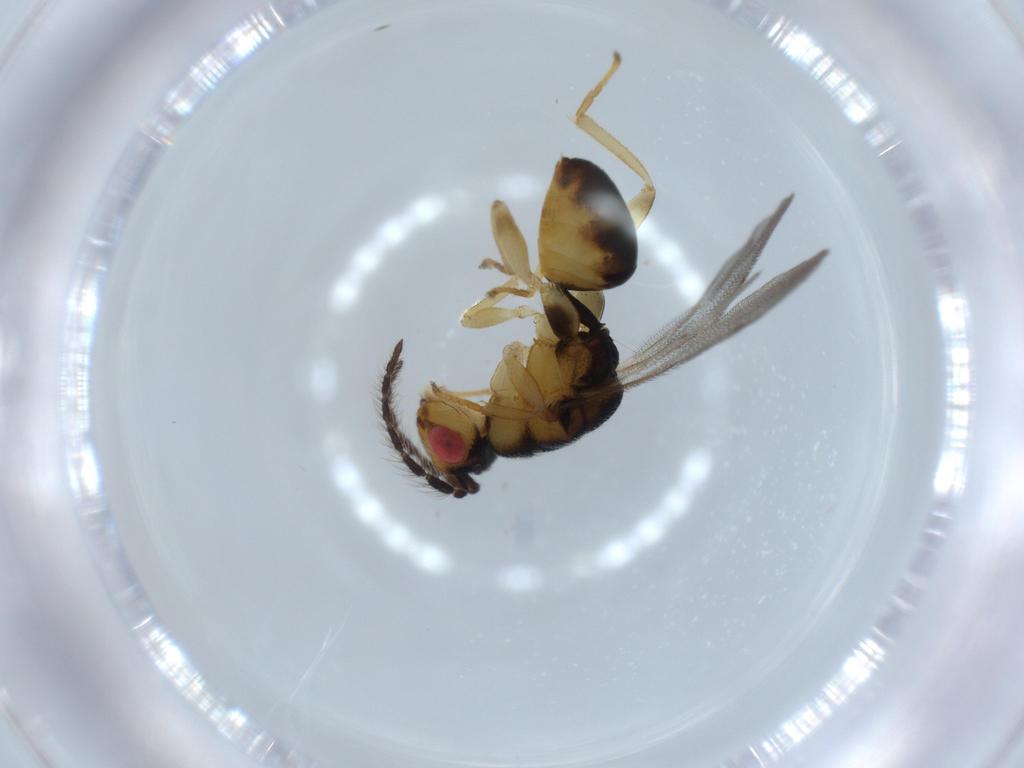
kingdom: Animalia
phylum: Arthropoda
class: Insecta
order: Hymenoptera
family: Eurytomidae
